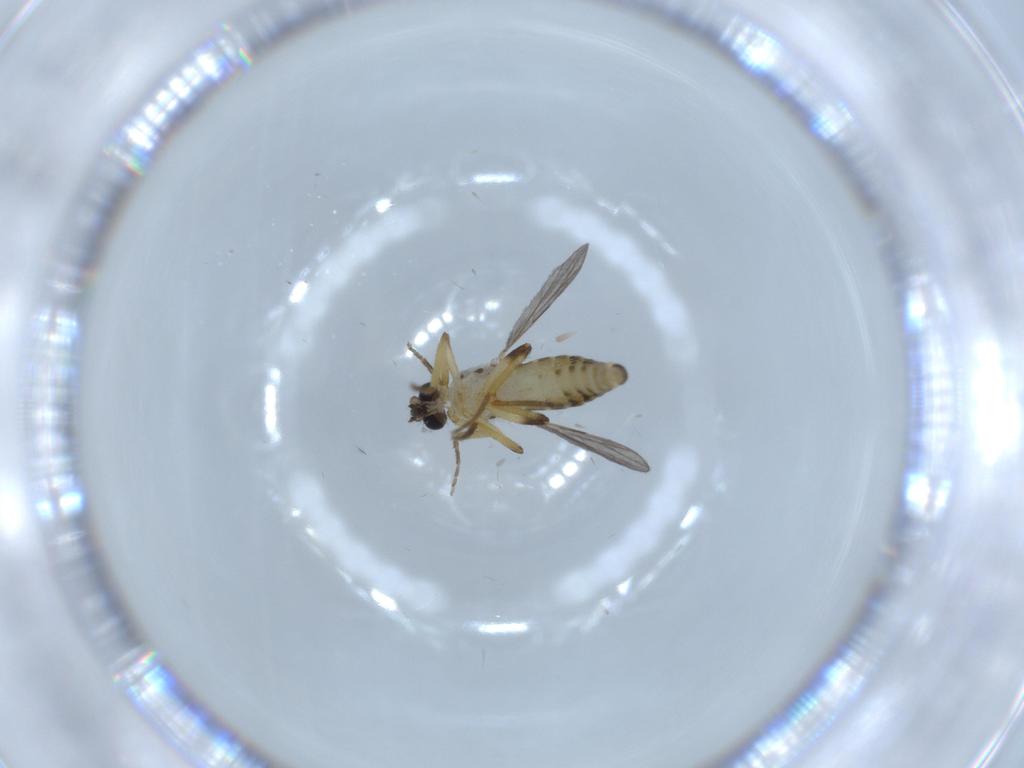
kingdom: Animalia
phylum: Arthropoda
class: Insecta
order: Diptera
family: Ceratopogonidae
